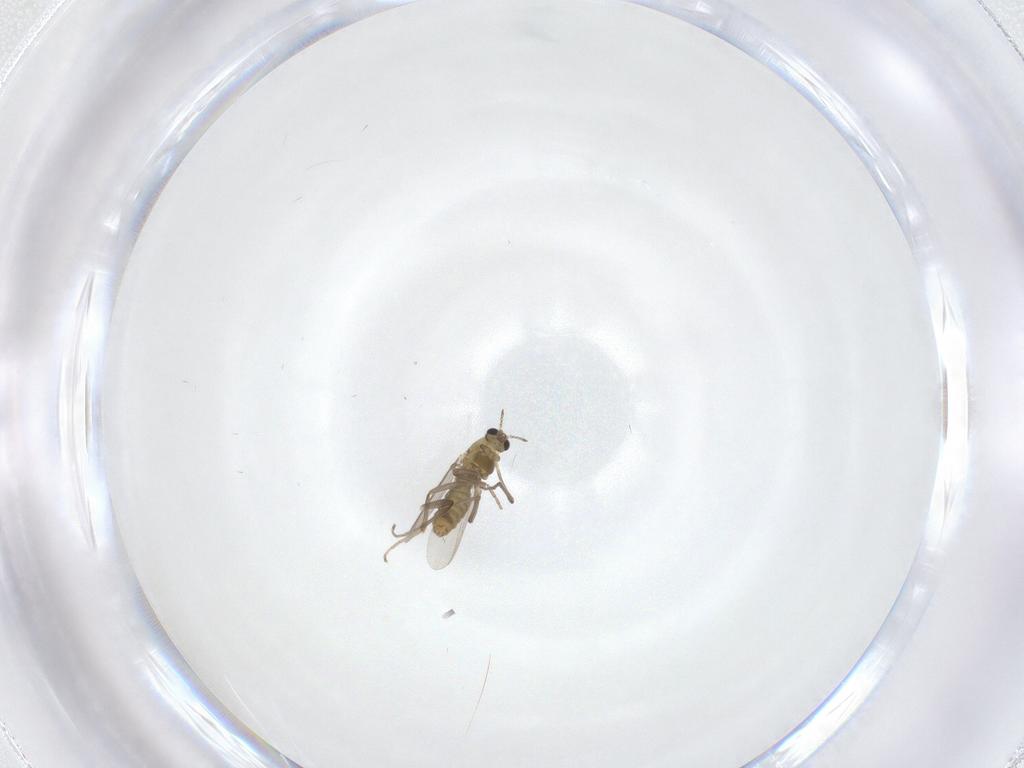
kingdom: Animalia
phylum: Arthropoda
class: Insecta
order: Diptera
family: Chironomidae
